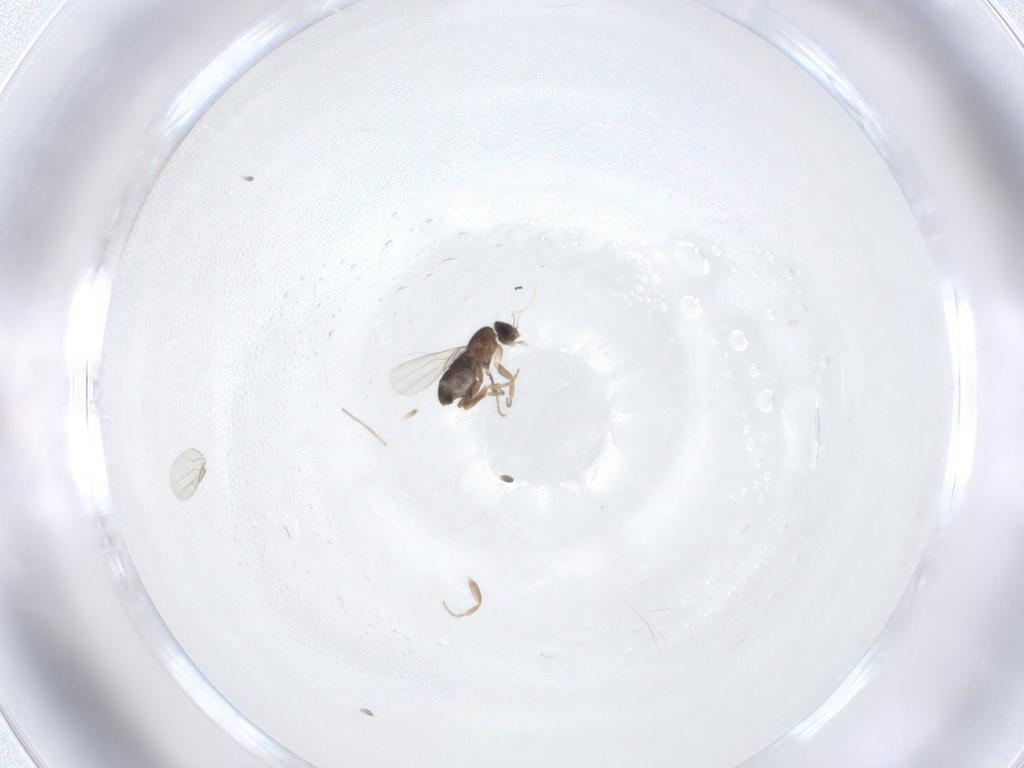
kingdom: Animalia
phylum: Arthropoda
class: Insecta
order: Diptera
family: Phoridae
